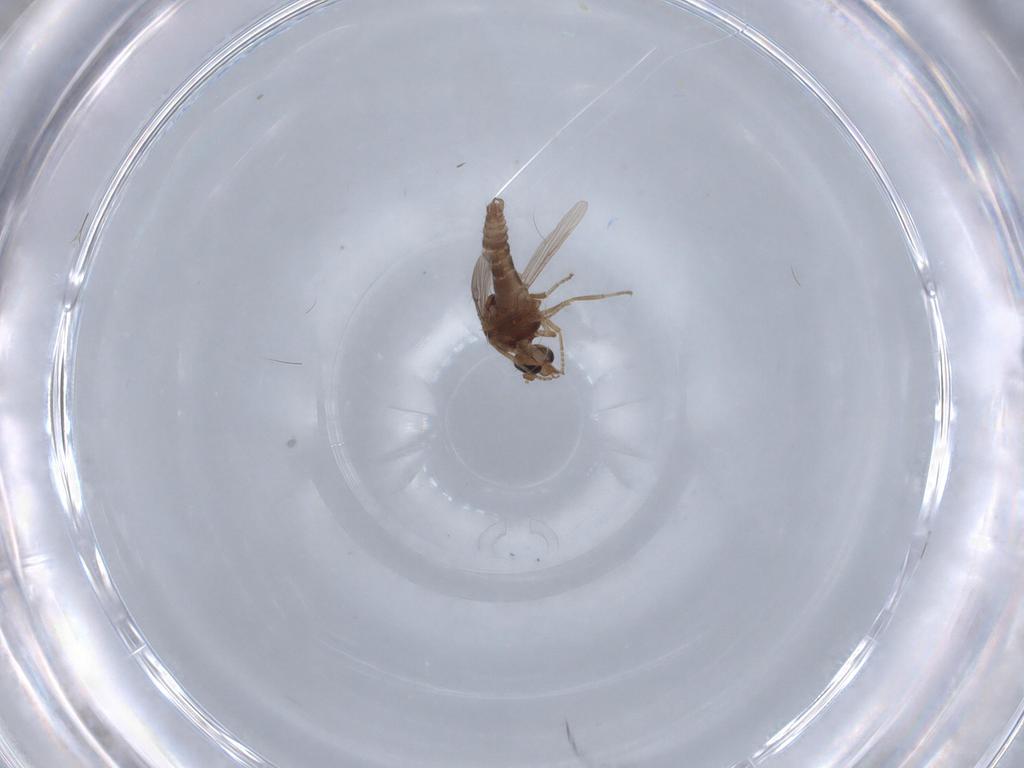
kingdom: Animalia
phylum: Arthropoda
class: Insecta
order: Diptera
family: Ceratopogonidae
